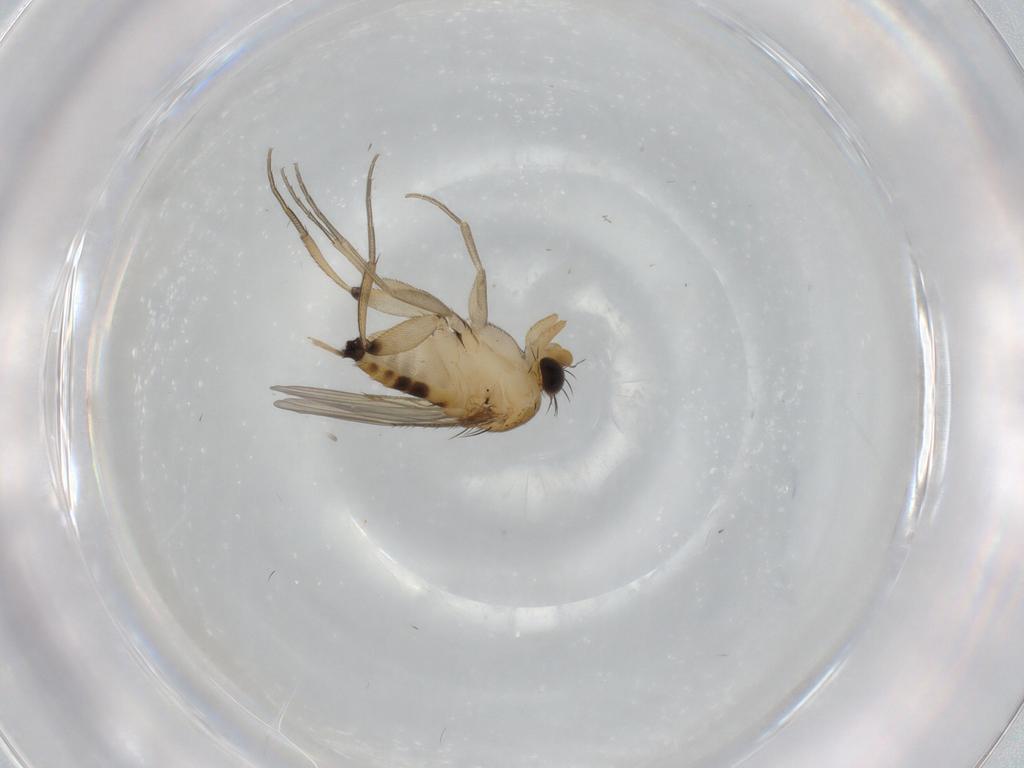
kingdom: Animalia
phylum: Arthropoda
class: Insecta
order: Diptera
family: Phoridae
